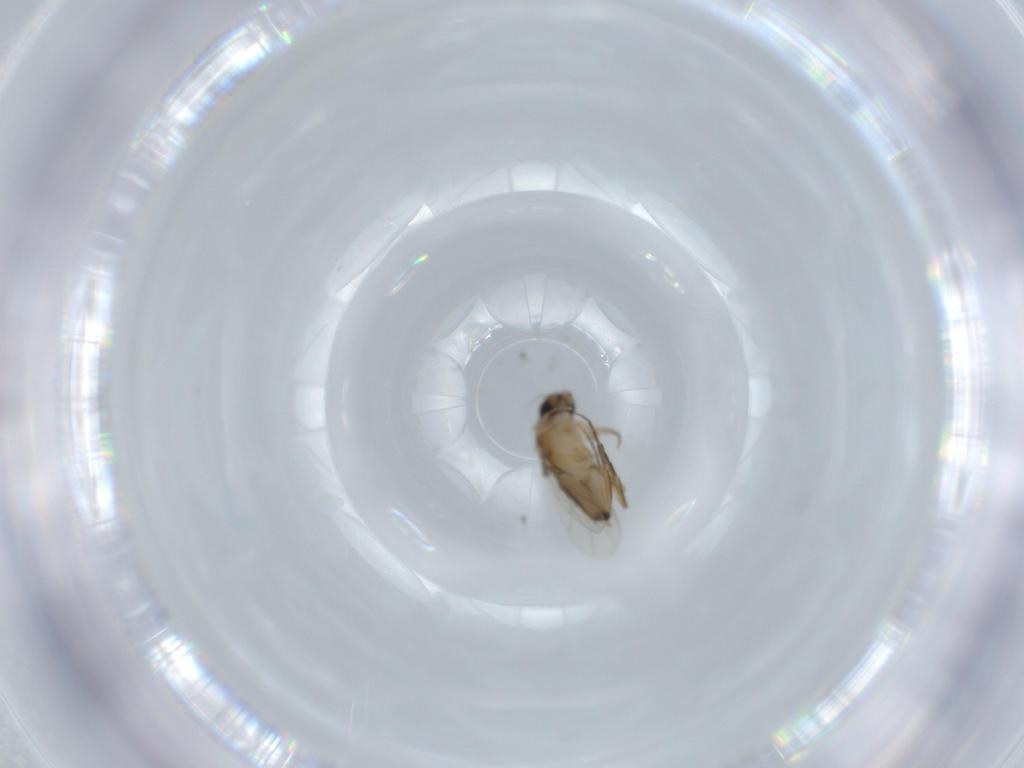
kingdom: Animalia
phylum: Arthropoda
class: Insecta
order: Diptera
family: Phoridae
